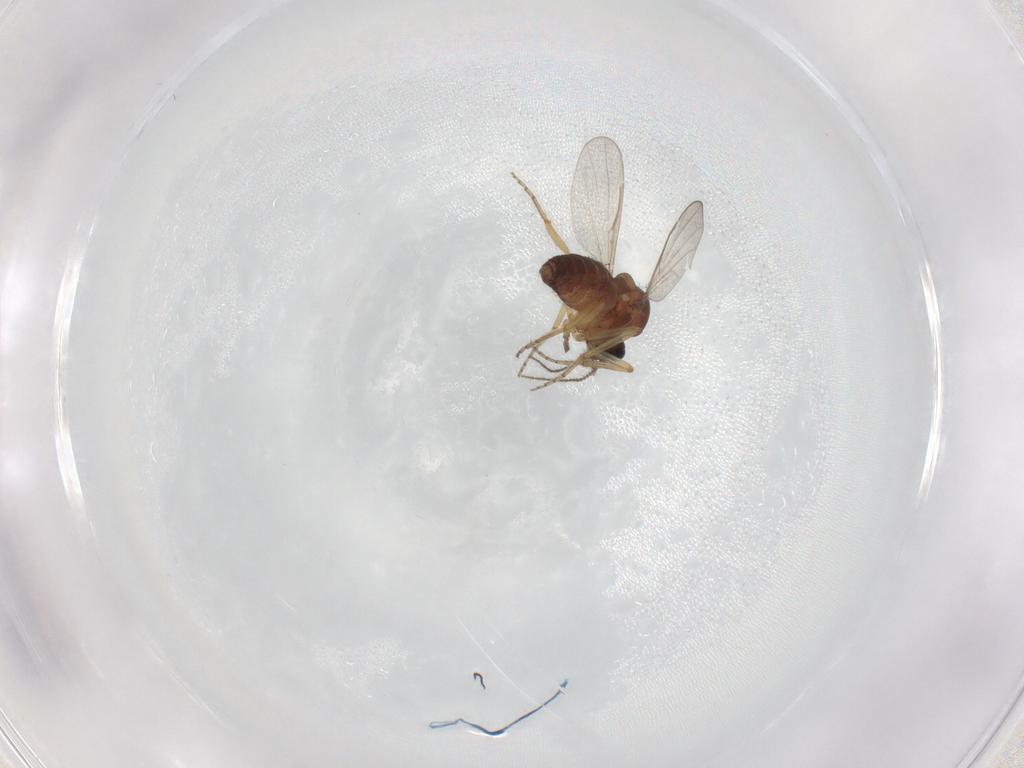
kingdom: Animalia
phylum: Arthropoda
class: Insecta
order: Diptera
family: Ceratopogonidae
